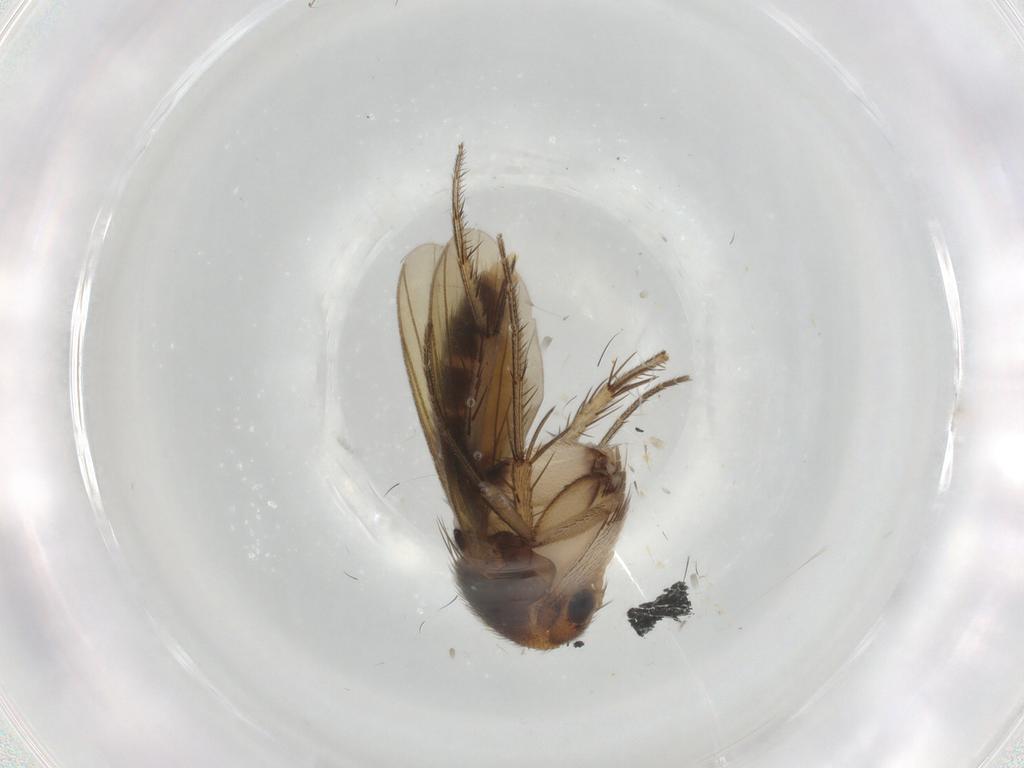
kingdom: Animalia
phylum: Arthropoda
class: Insecta
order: Diptera
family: Mycetophilidae
